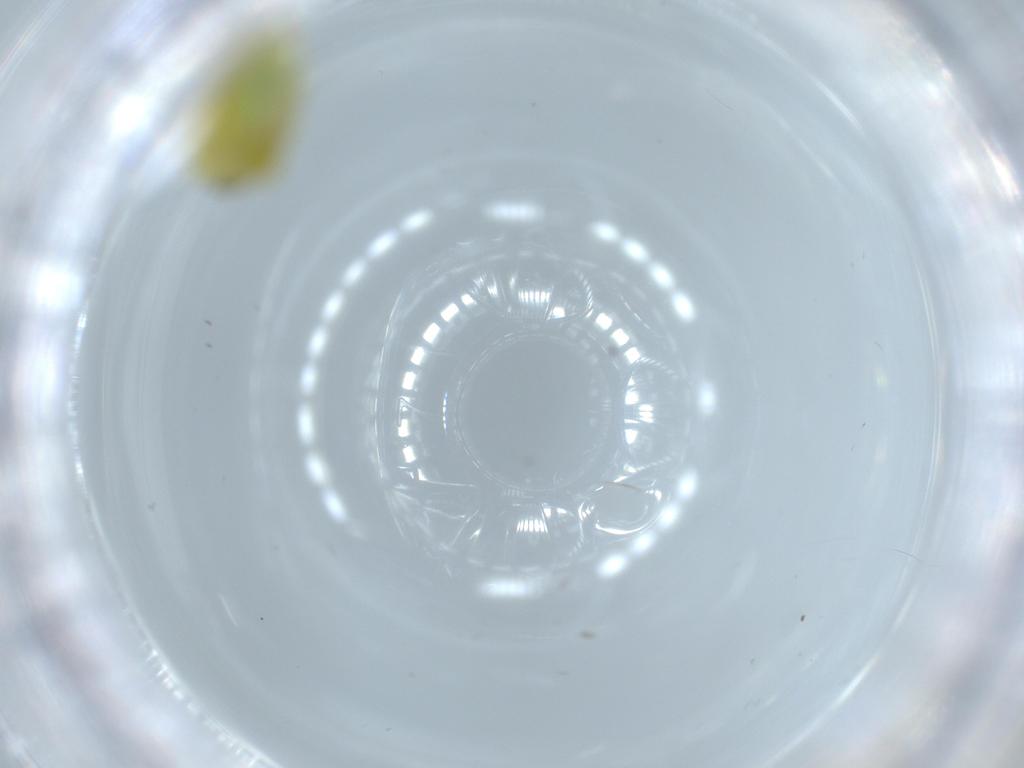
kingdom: Animalia
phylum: Arthropoda
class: Insecta
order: Hemiptera
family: Cicadellidae
